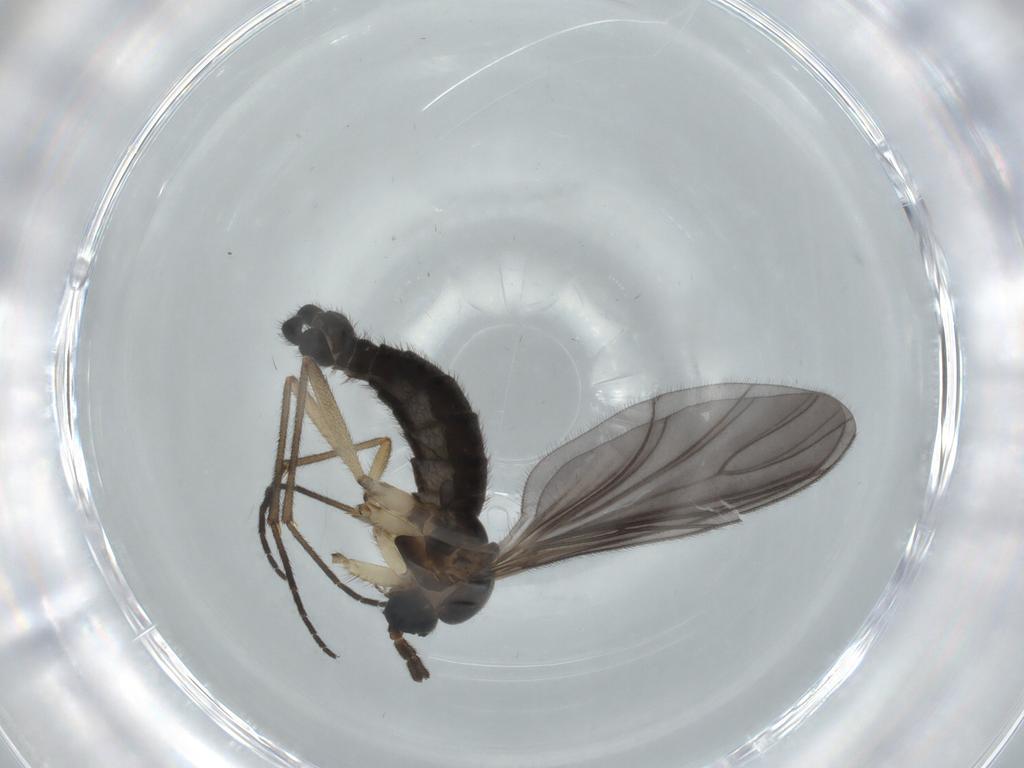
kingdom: Animalia
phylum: Arthropoda
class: Insecta
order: Diptera
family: Sciaridae
